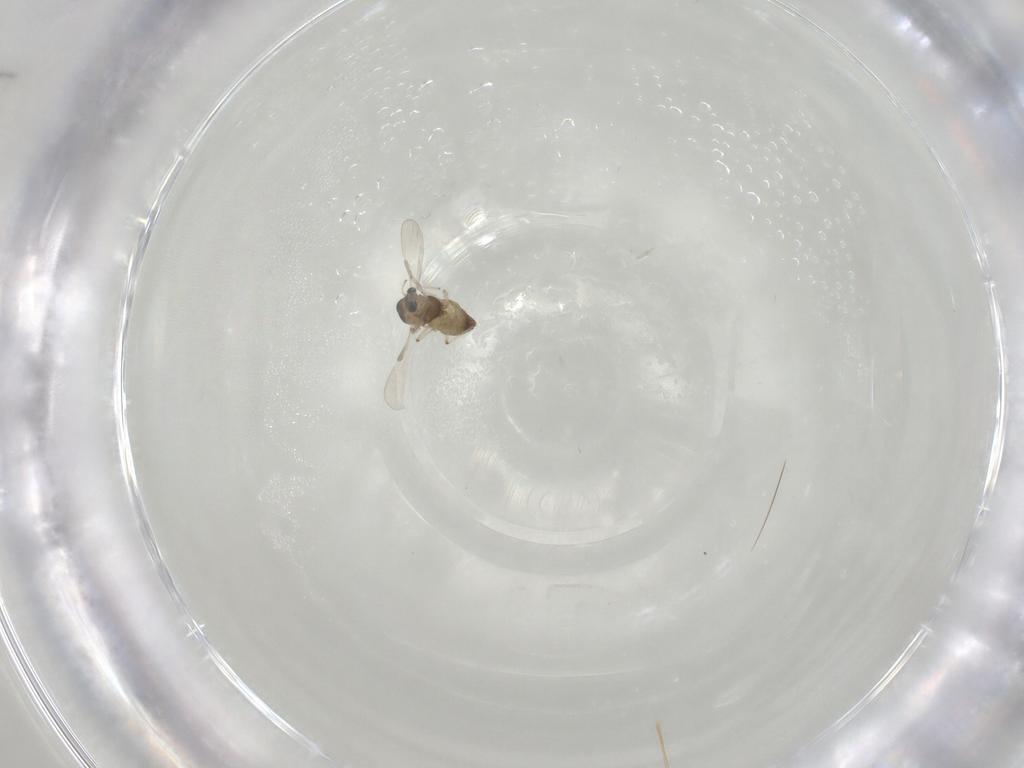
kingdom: Animalia
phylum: Arthropoda
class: Insecta
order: Diptera
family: Chironomidae
